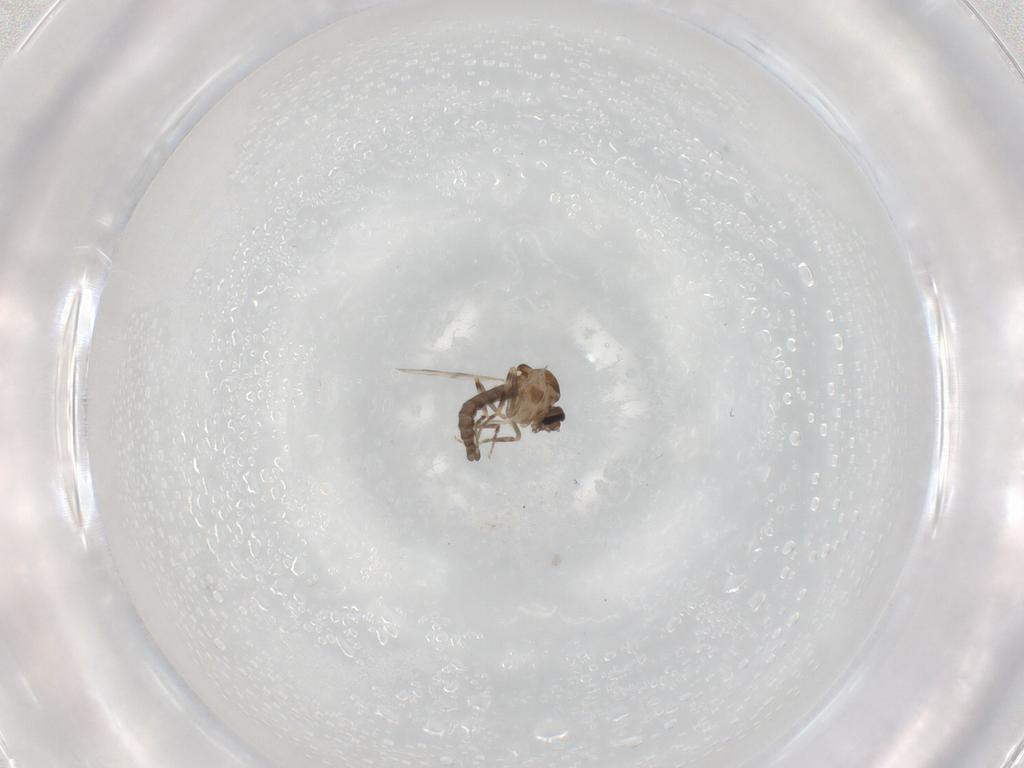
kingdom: Animalia
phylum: Arthropoda
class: Insecta
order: Diptera
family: Ceratopogonidae
